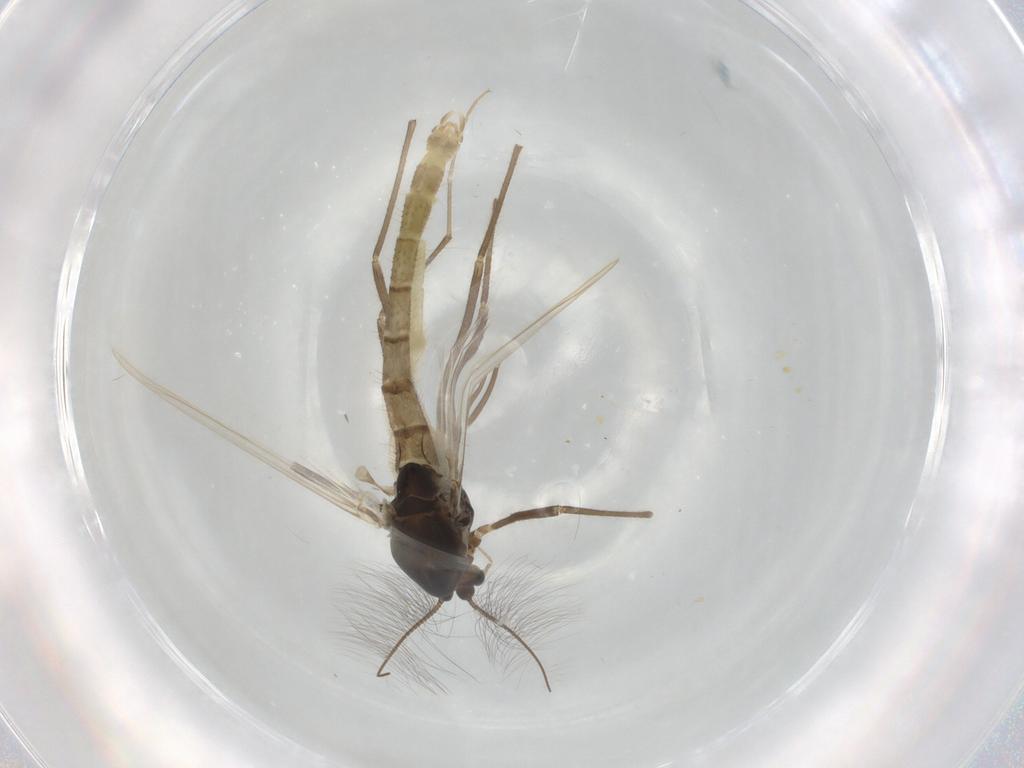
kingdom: Animalia
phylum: Arthropoda
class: Insecta
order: Diptera
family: Chironomidae
